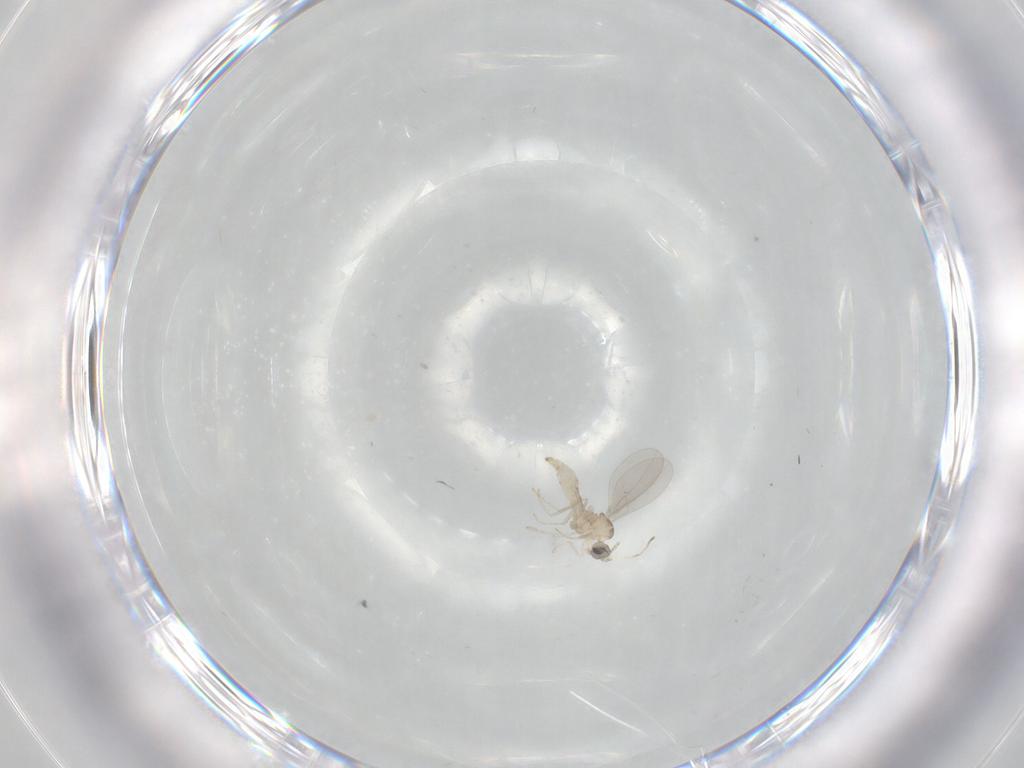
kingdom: Animalia
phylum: Arthropoda
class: Insecta
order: Diptera
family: Cecidomyiidae
